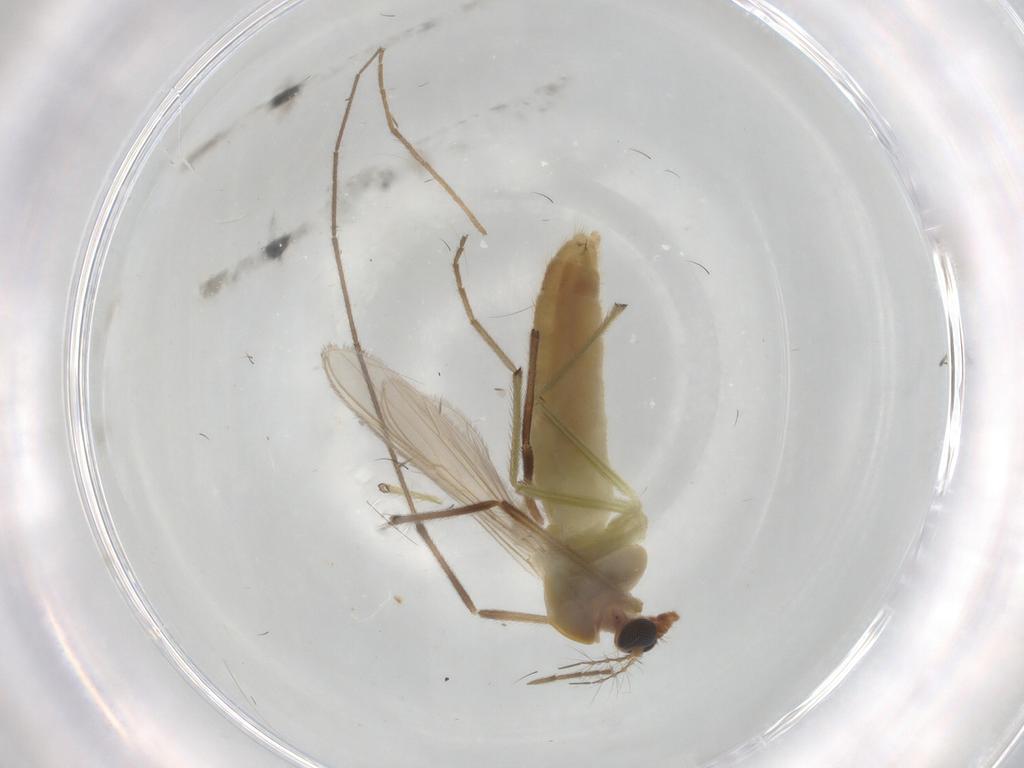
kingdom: Animalia
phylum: Arthropoda
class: Insecta
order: Diptera
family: Chironomidae
